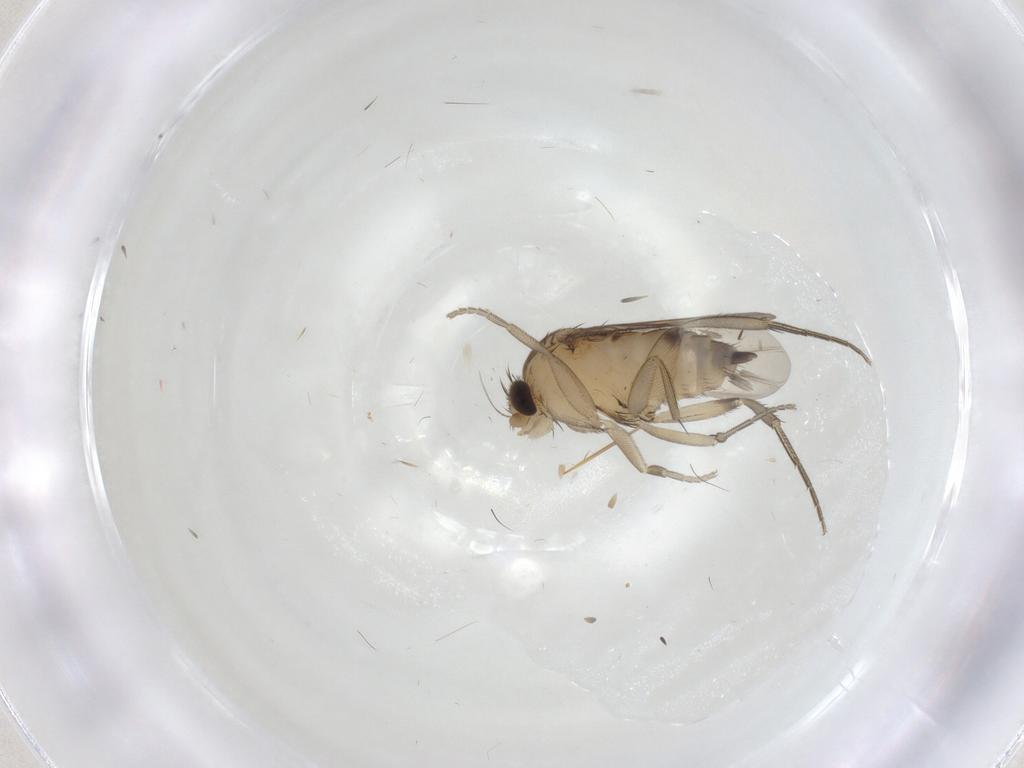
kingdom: Animalia
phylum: Arthropoda
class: Insecta
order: Diptera
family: Phoridae
